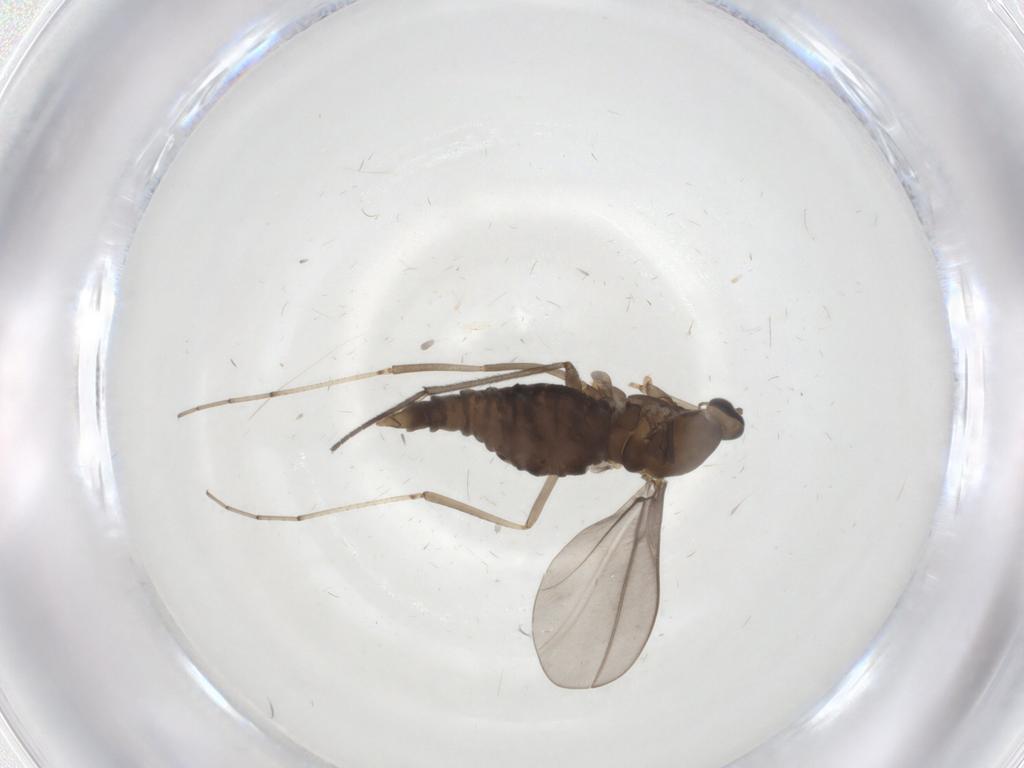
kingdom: Animalia
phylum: Arthropoda
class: Insecta
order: Diptera
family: Cecidomyiidae
